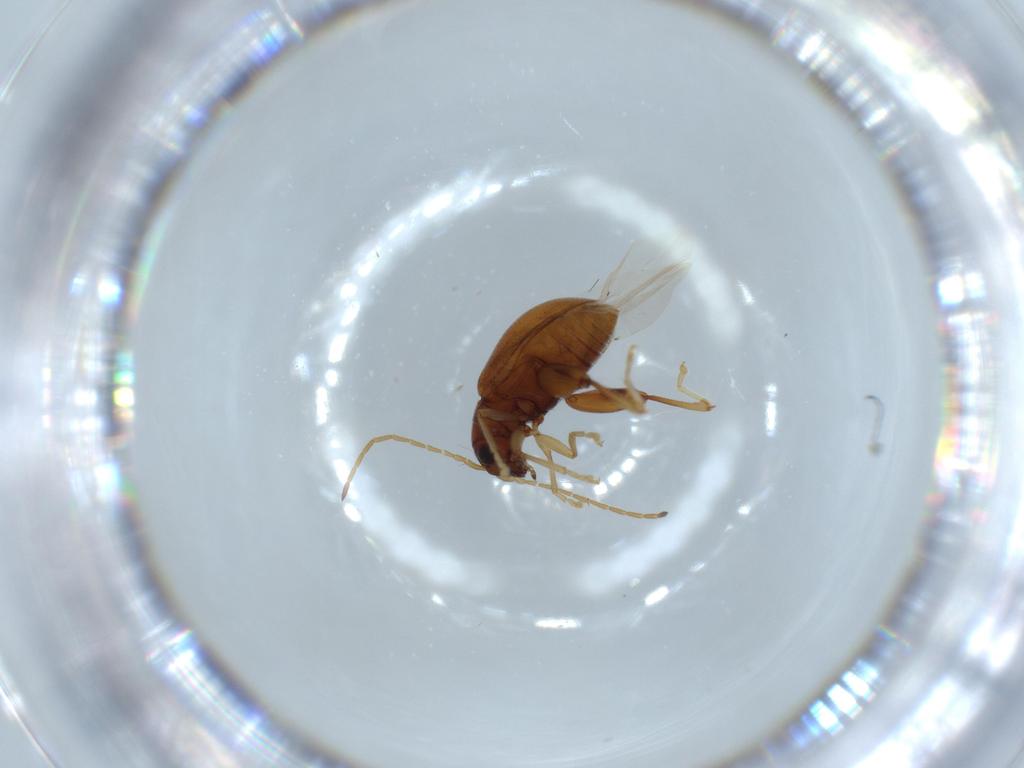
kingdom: Animalia
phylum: Arthropoda
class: Insecta
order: Coleoptera
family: Chrysomelidae
